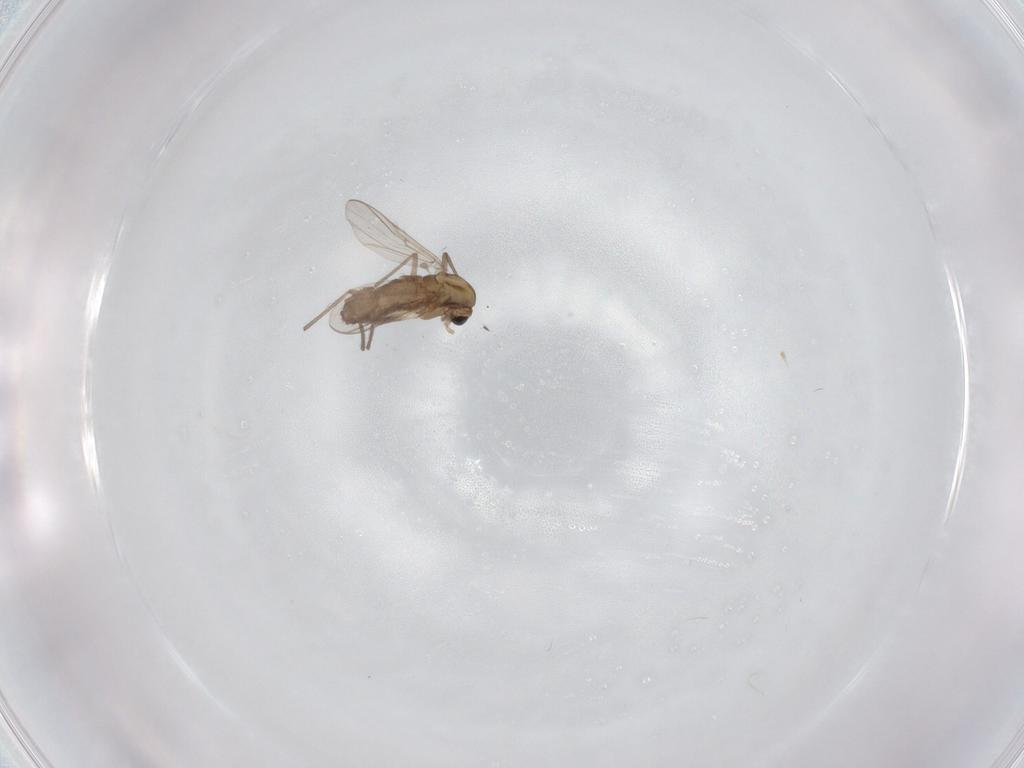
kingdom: Animalia
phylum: Arthropoda
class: Insecta
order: Diptera
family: Chironomidae
